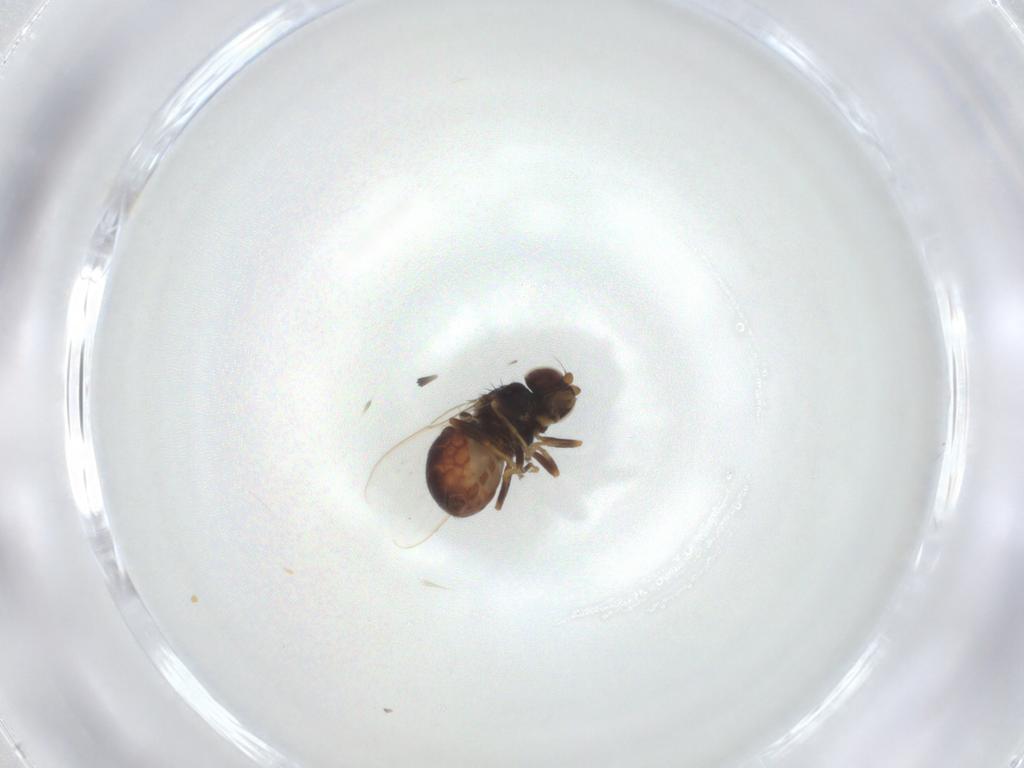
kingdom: Animalia
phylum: Arthropoda
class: Insecta
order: Diptera
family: Chloropidae
